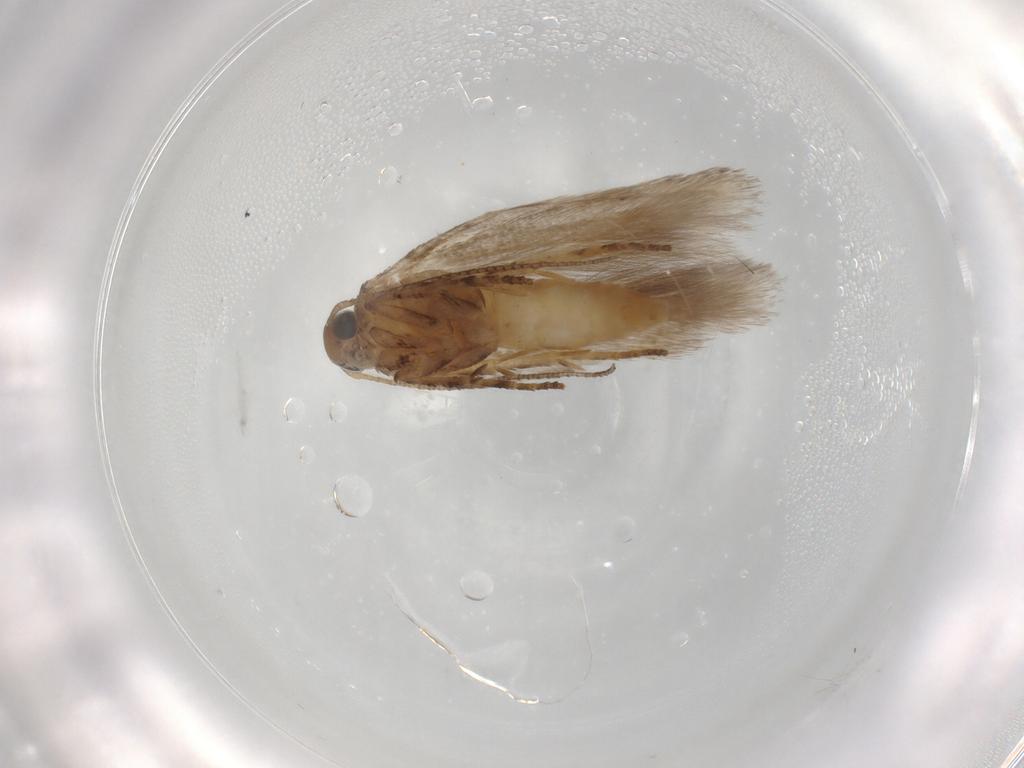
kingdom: Animalia
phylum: Arthropoda
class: Insecta
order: Lepidoptera
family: Gelechiidae
